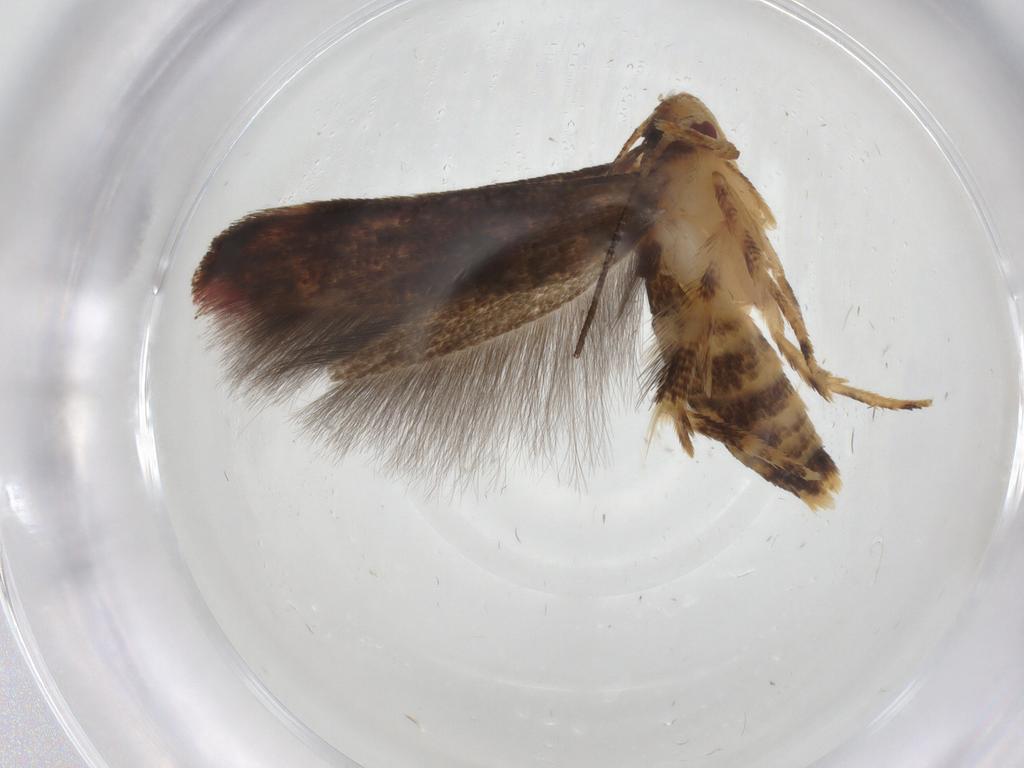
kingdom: Animalia
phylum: Arthropoda
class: Insecta
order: Lepidoptera
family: Momphidae
